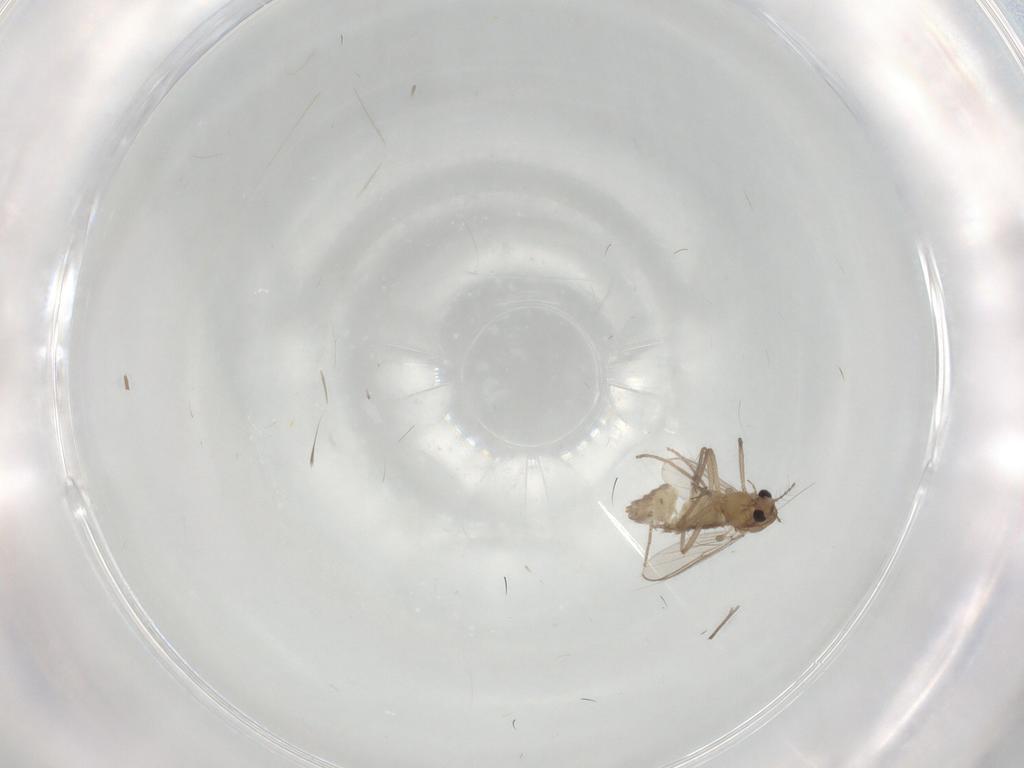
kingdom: Animalia
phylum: Arthropoda
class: Insecta
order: Diptera
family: Chironomidae
